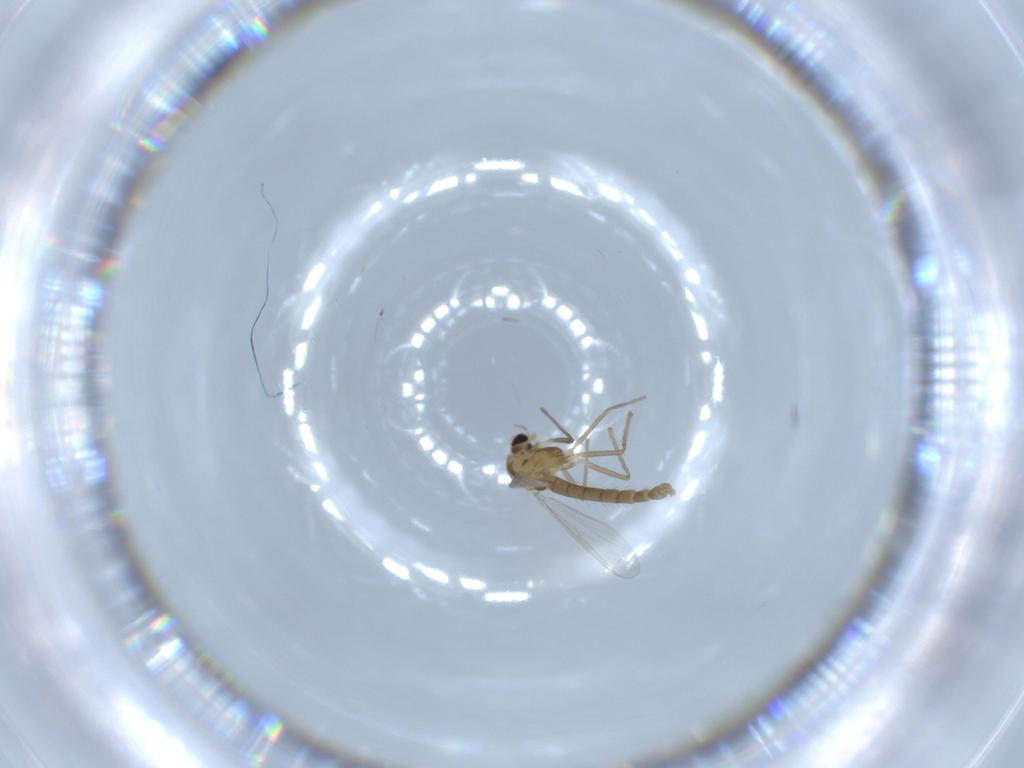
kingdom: Animalia
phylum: Arthropoda
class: Insecta
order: Diptera
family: Chironomidae
